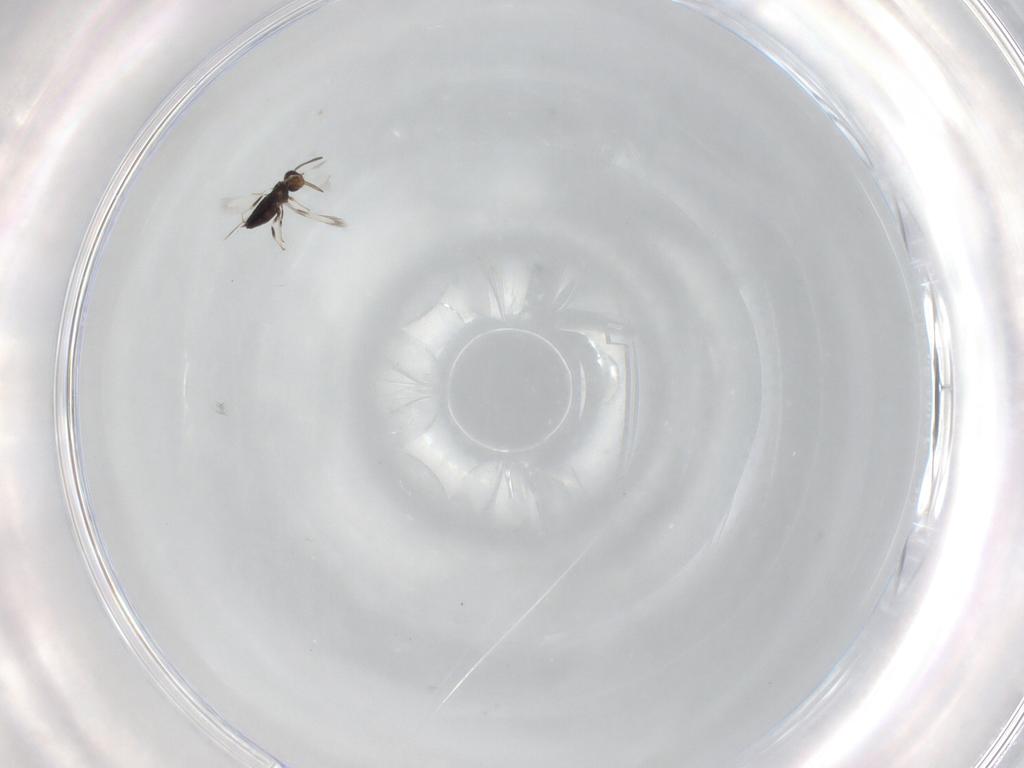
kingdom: Animalia
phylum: Arthropoda
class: Insecta
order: Hymenoptera
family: Signiphoridae
